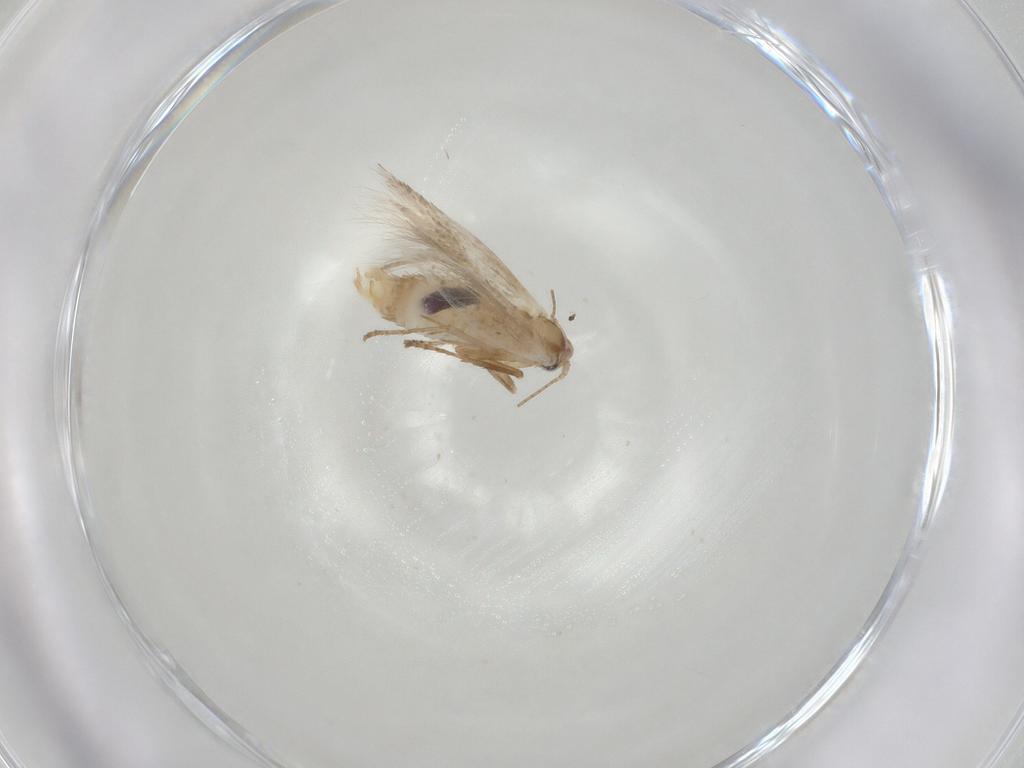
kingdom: Animalia
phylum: Arthropoda
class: Insecta
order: Lepidoptera
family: Bucculatricidae
